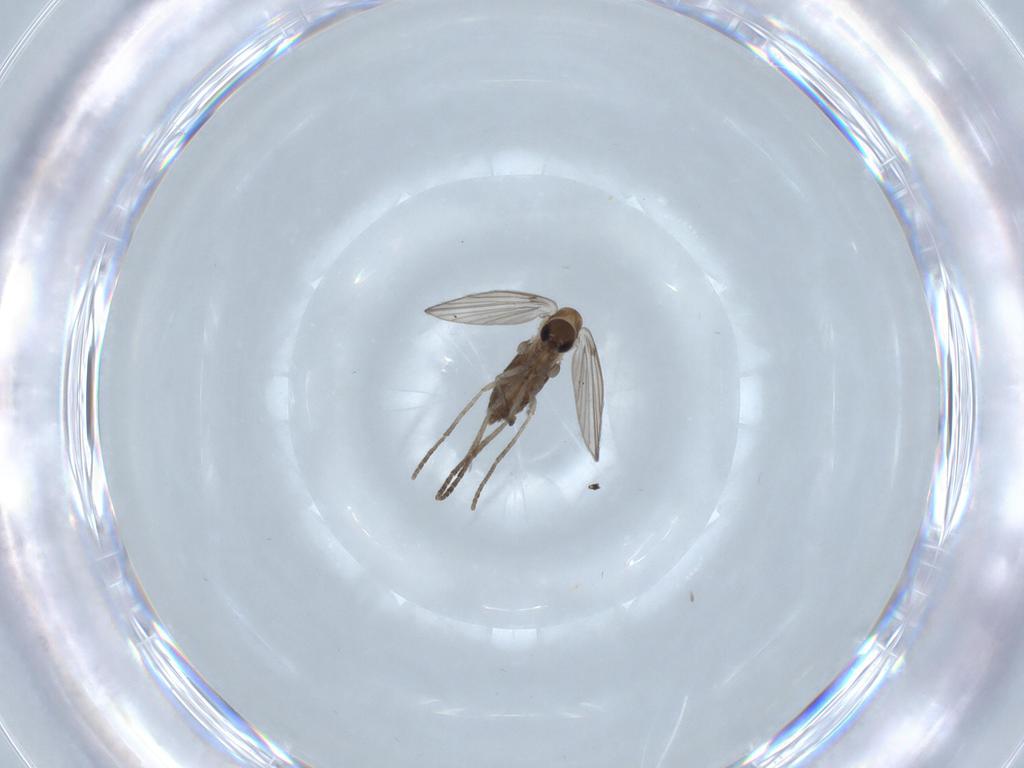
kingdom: Animalia
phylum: Arthropoda
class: Insecta
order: Diptera
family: Psychodidae
